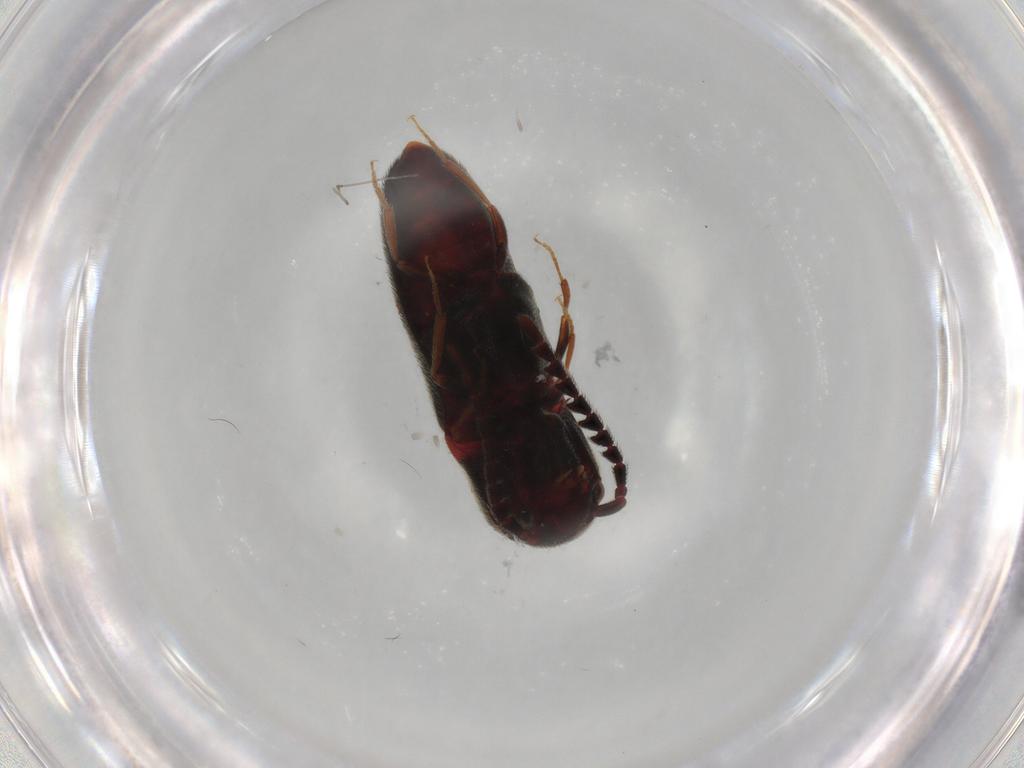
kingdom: Animalia
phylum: Arthropoda
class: Insecta
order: Coleoptera
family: Eucnemidae
